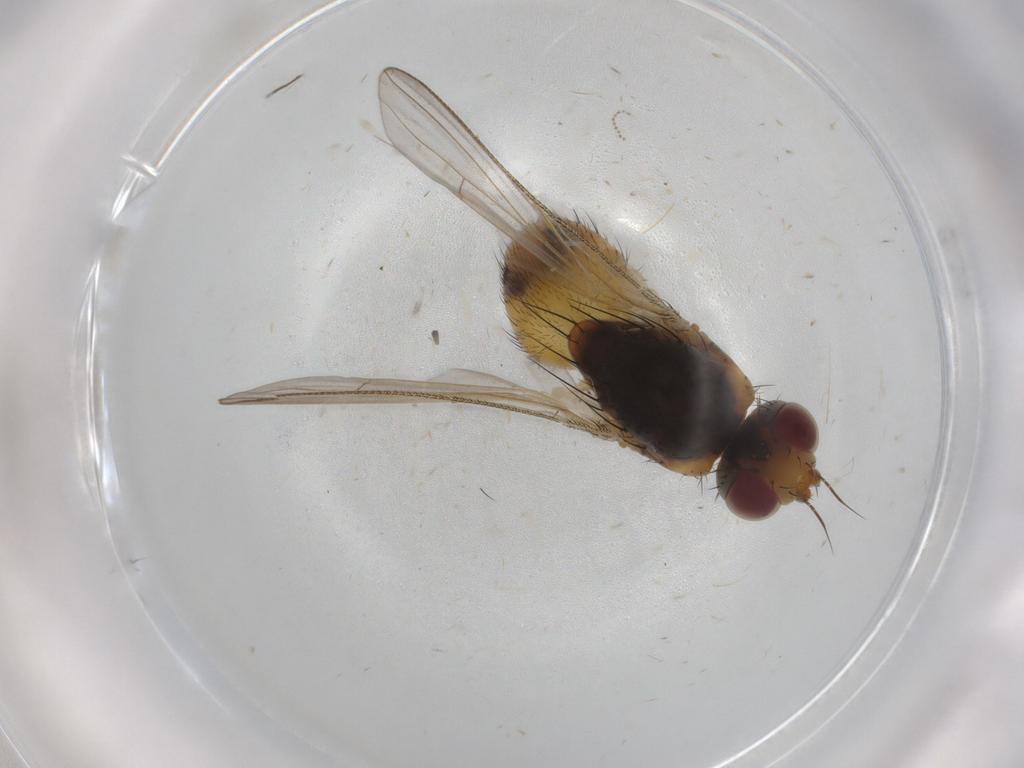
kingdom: Animalia
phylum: Arthropoda
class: Insecta
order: Diptera
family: Muscidae
